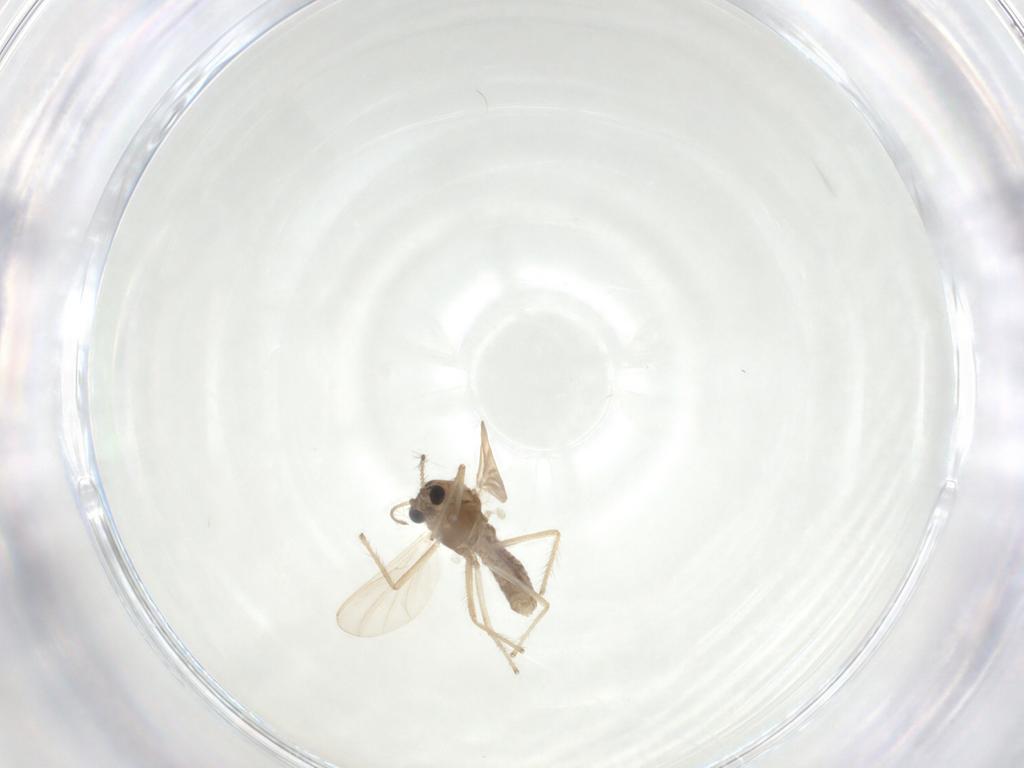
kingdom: Animalia
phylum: Arthropoda
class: Insecta
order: Diptera
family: Chironomidae
